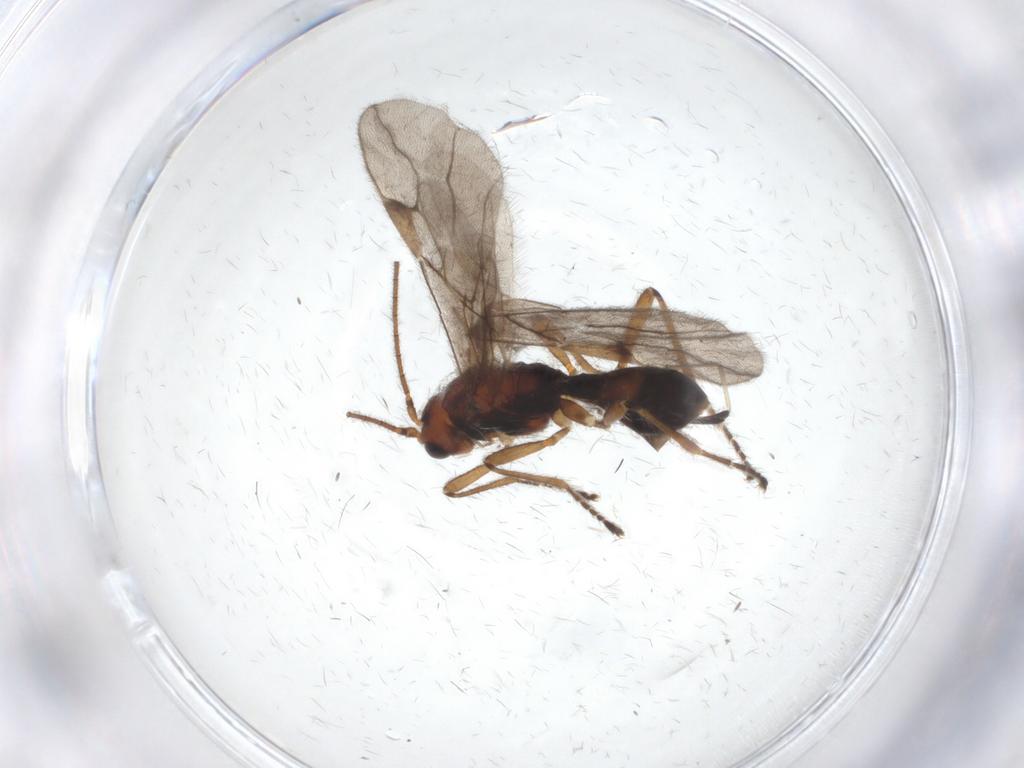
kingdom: Animalia
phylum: Arthropoda
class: Insecta
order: Hymenoptera
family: Braconidae
